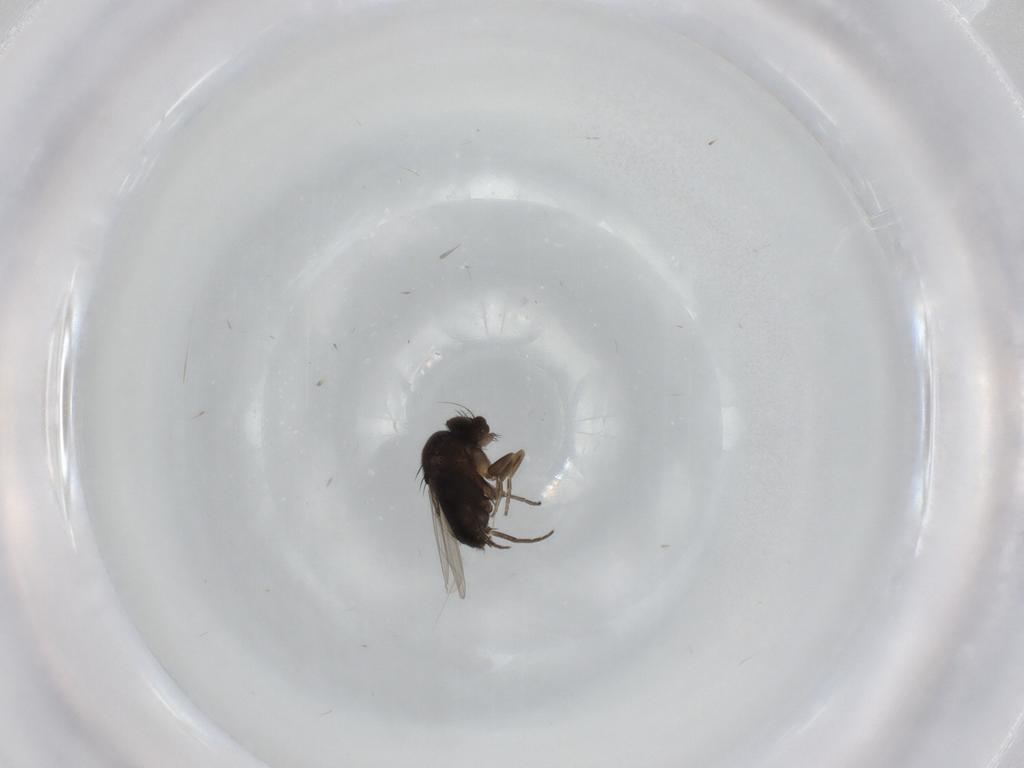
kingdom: Animalia
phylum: Arthropoda
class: Insecta
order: Diptera
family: Phoridae
